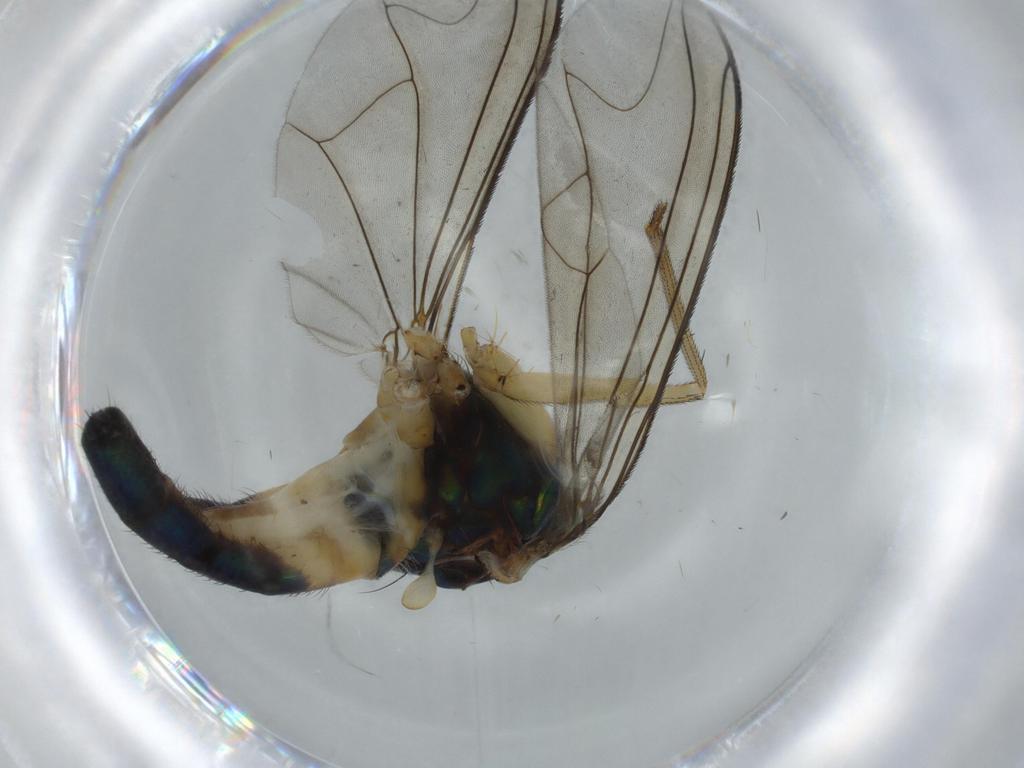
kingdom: Animalia
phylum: Arthropoda
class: Insecta
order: Diptera
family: Dolichopodidae
